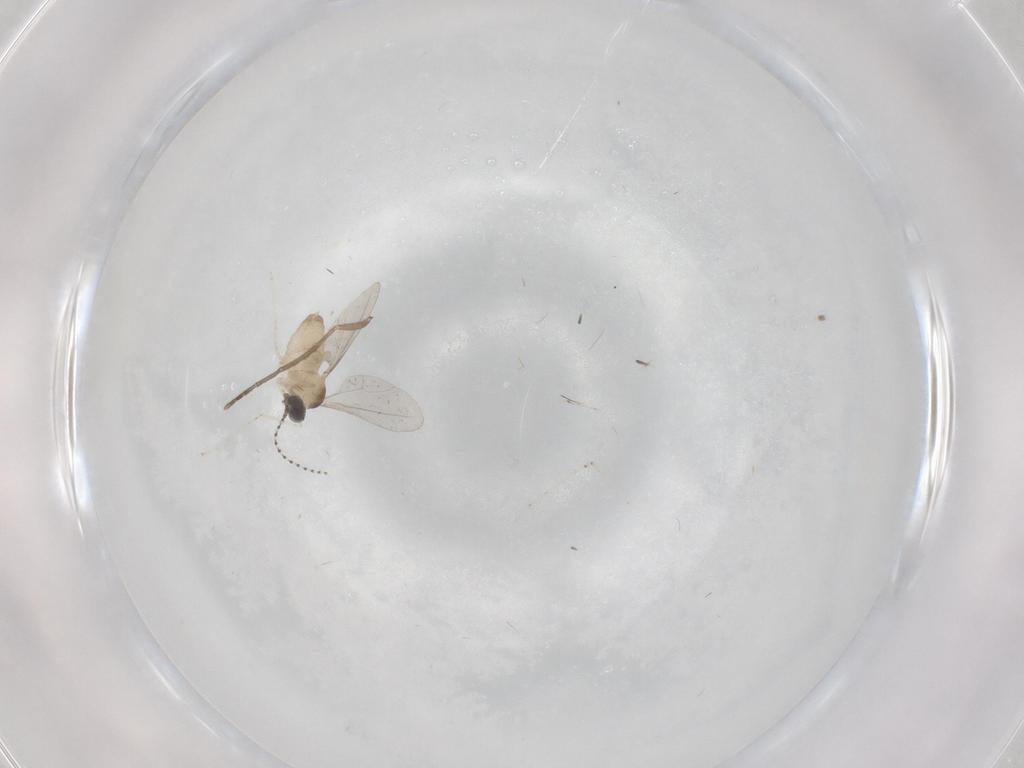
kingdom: Animalia
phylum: Arthropoda
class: Insecta
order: Diptera
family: Cecidomyiidae
